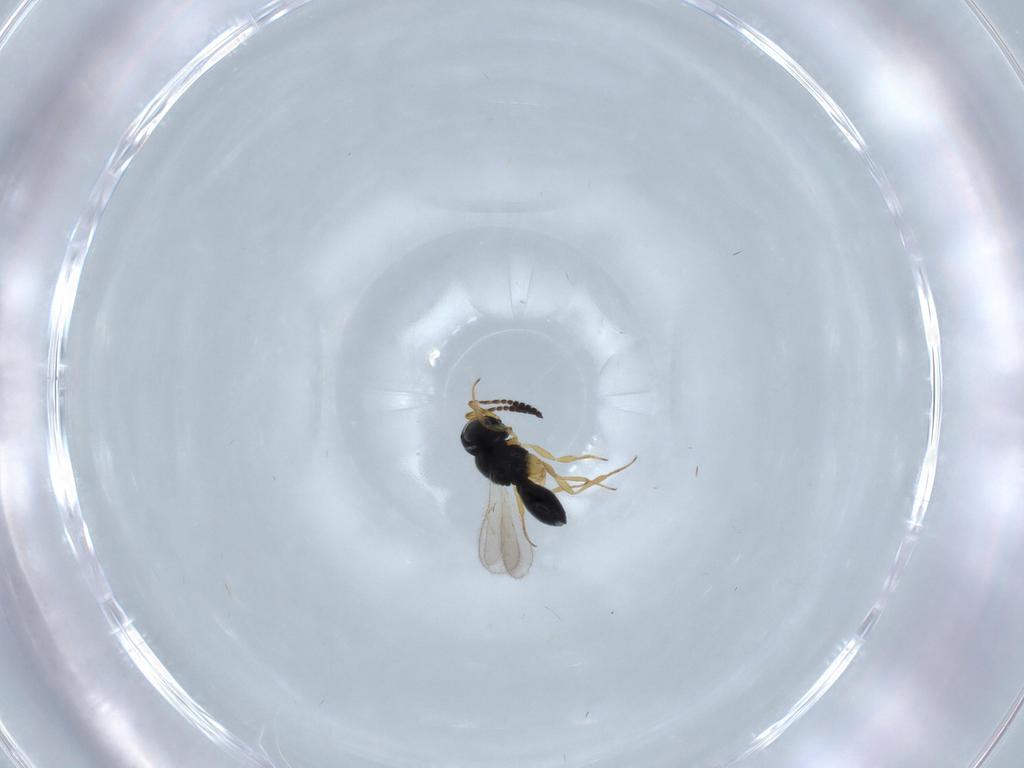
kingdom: Animalia
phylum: Arthropoda
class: Insecta
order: Hymenoptera
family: Scelionidae
